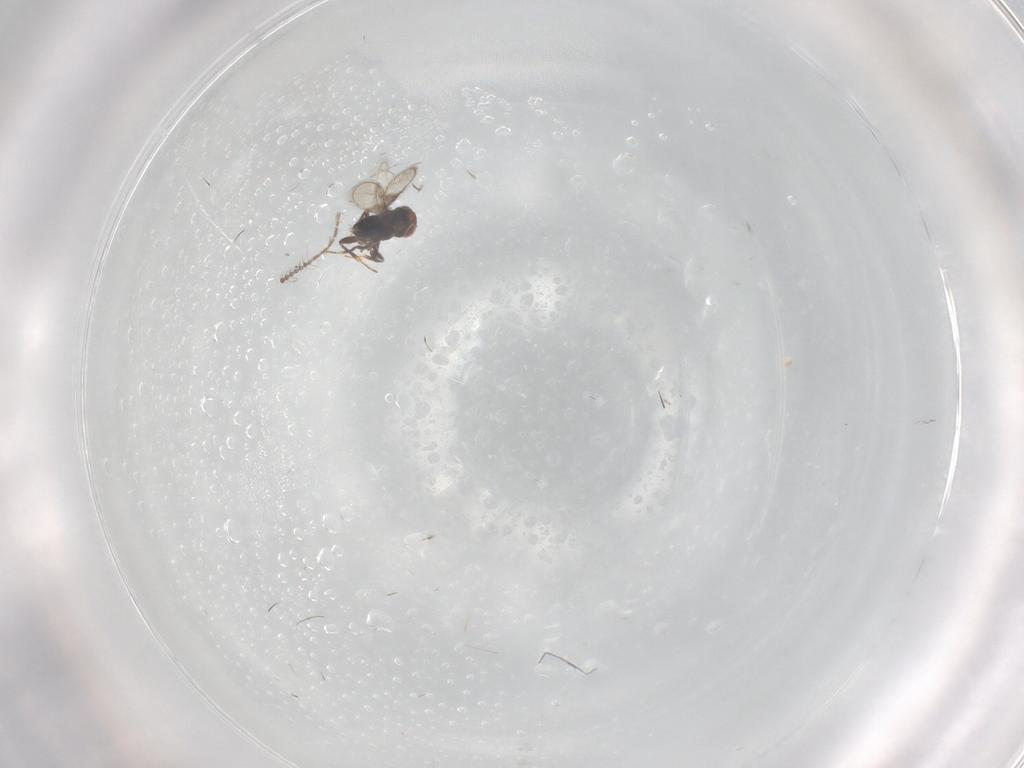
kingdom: Animalia
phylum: Arthropoda
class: Insecta
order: Diptera
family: Ceratopogonidae
